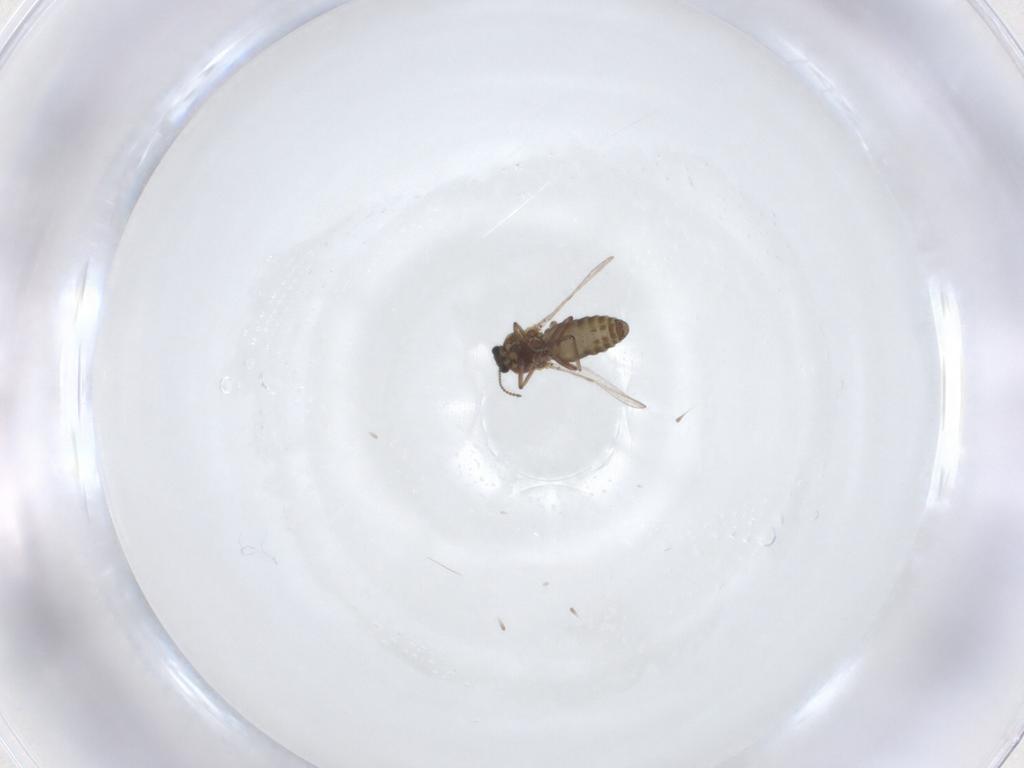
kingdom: Animalia
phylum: Arthropoda
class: Insecta
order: Diptera
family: Ceratopogonidae
